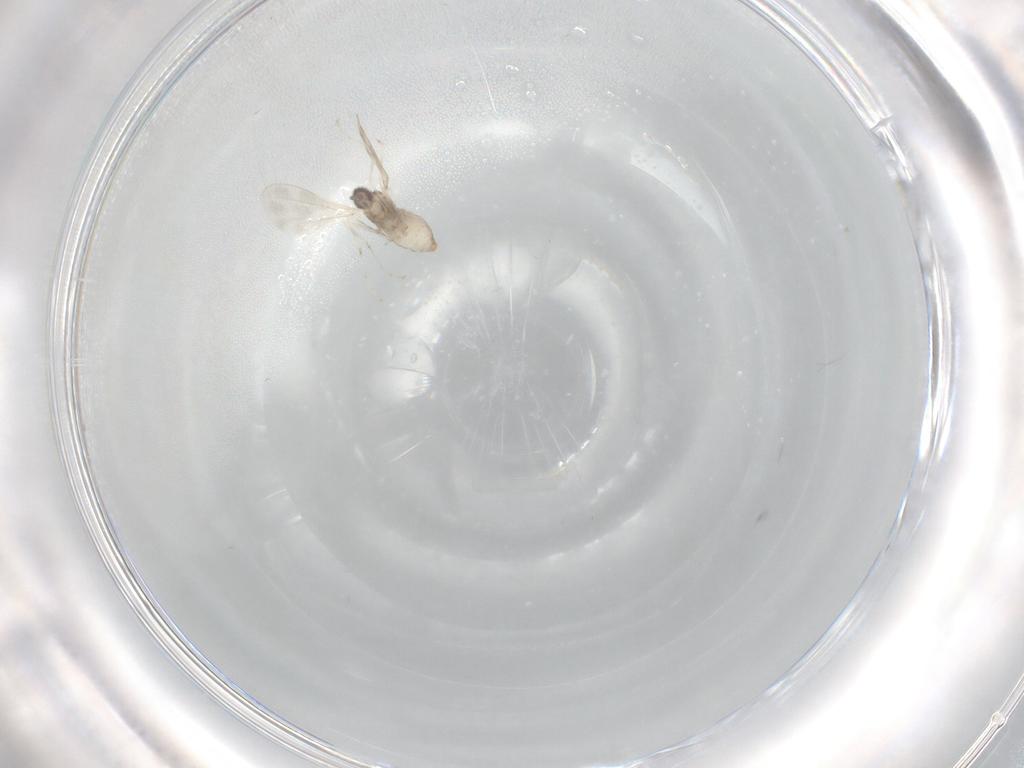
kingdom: Animalia
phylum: Arthropoda
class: Insecta
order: Diptera
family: Cecidomyiidae
